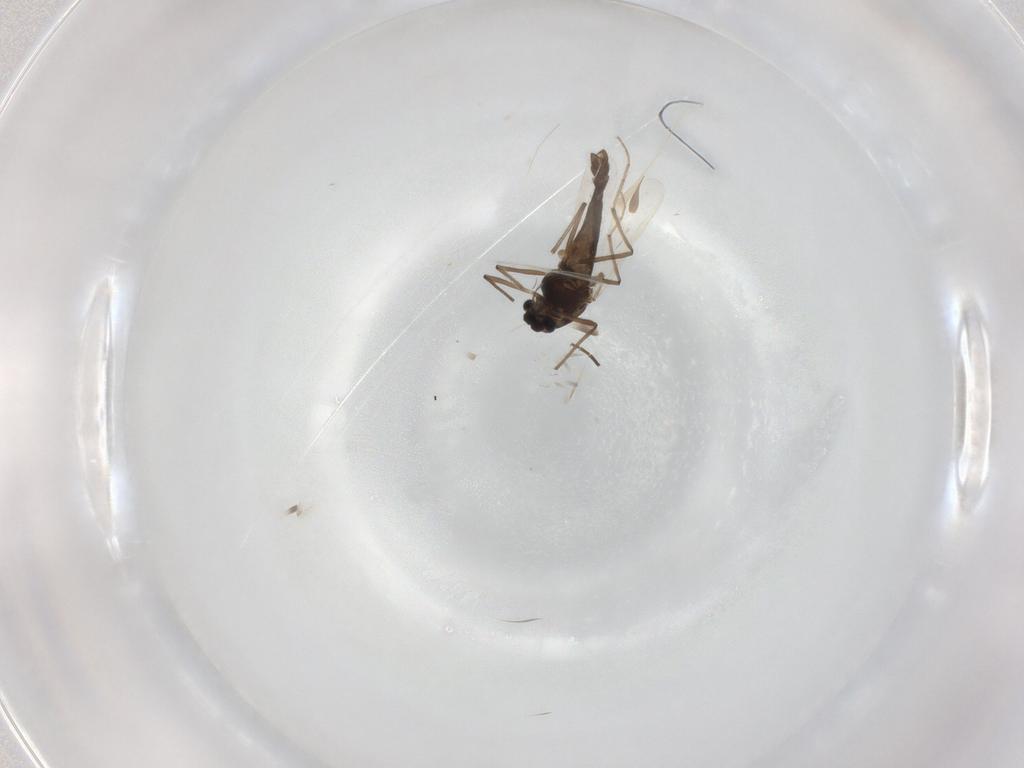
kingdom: Animalia
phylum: Arthropoda
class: Insecta
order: Diptera
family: Chironomidae
